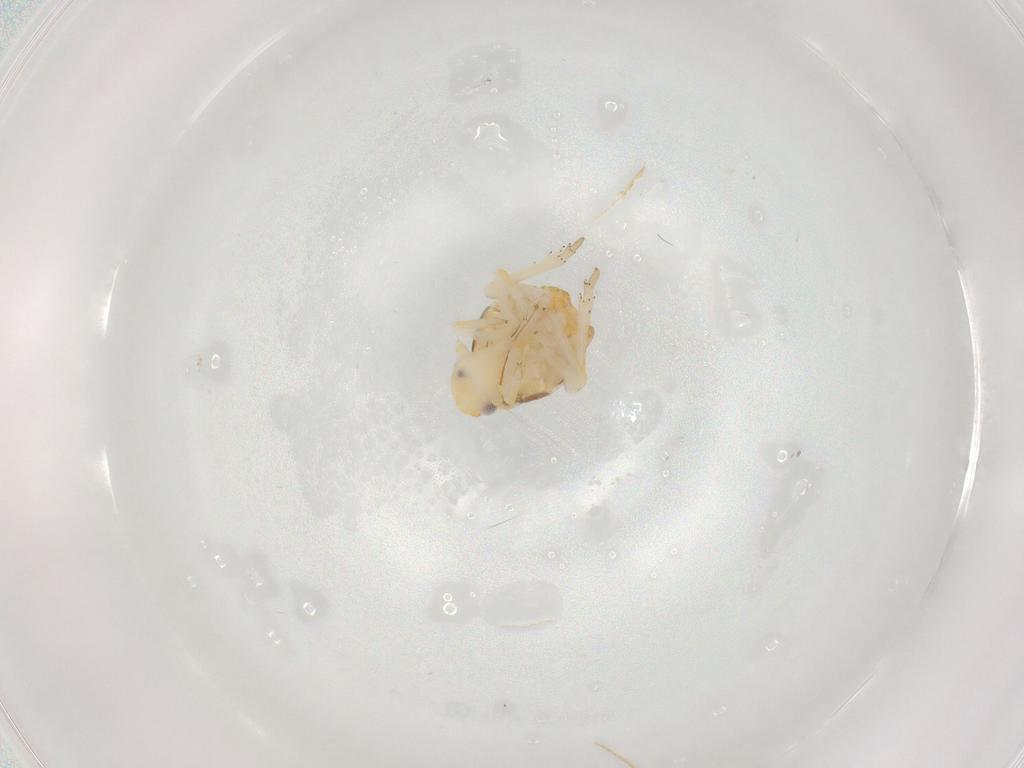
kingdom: Animalia
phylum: Arthropoda
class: Insecta
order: Hemiptera
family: Ricaniidae
